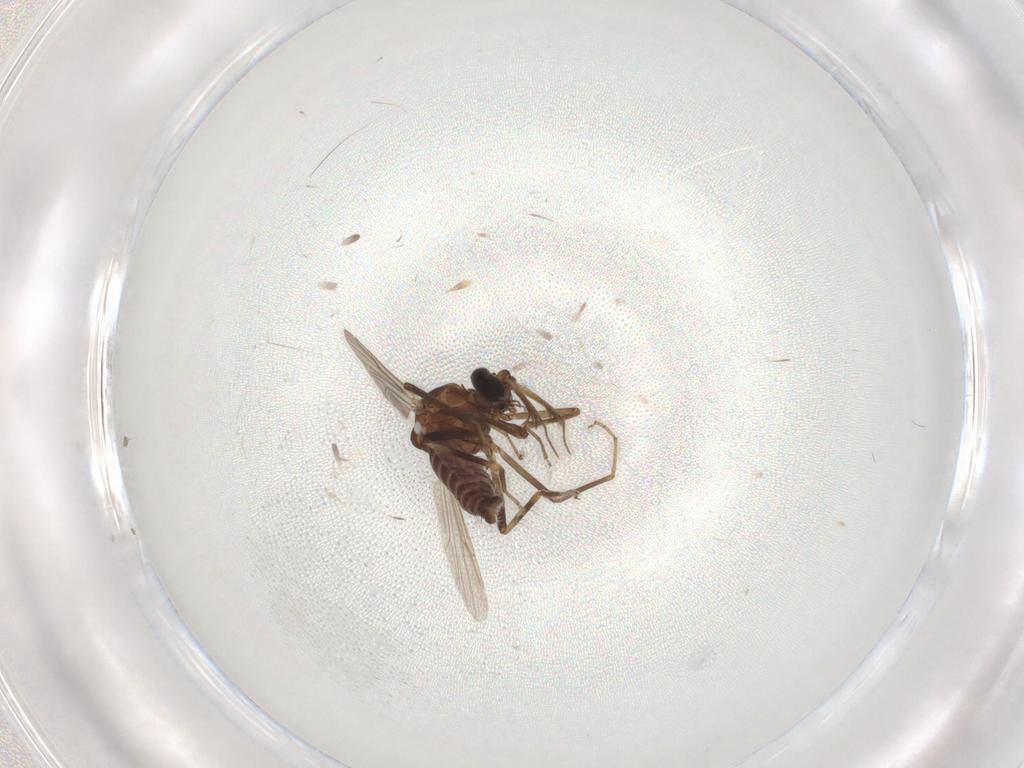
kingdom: Animalia
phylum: Arthropoda
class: Insecta
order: Diptera
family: Ceratopogonidae
